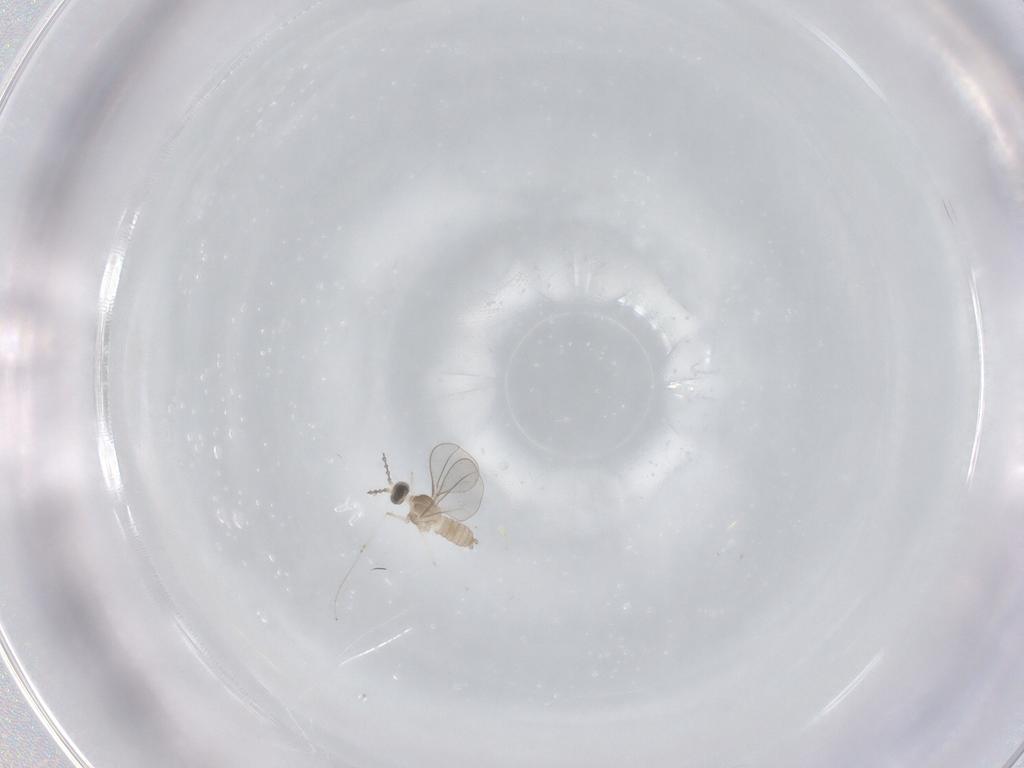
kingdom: Animalia
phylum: Arthropoda
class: Insecta
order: Diptera
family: Cecidomyiidae
